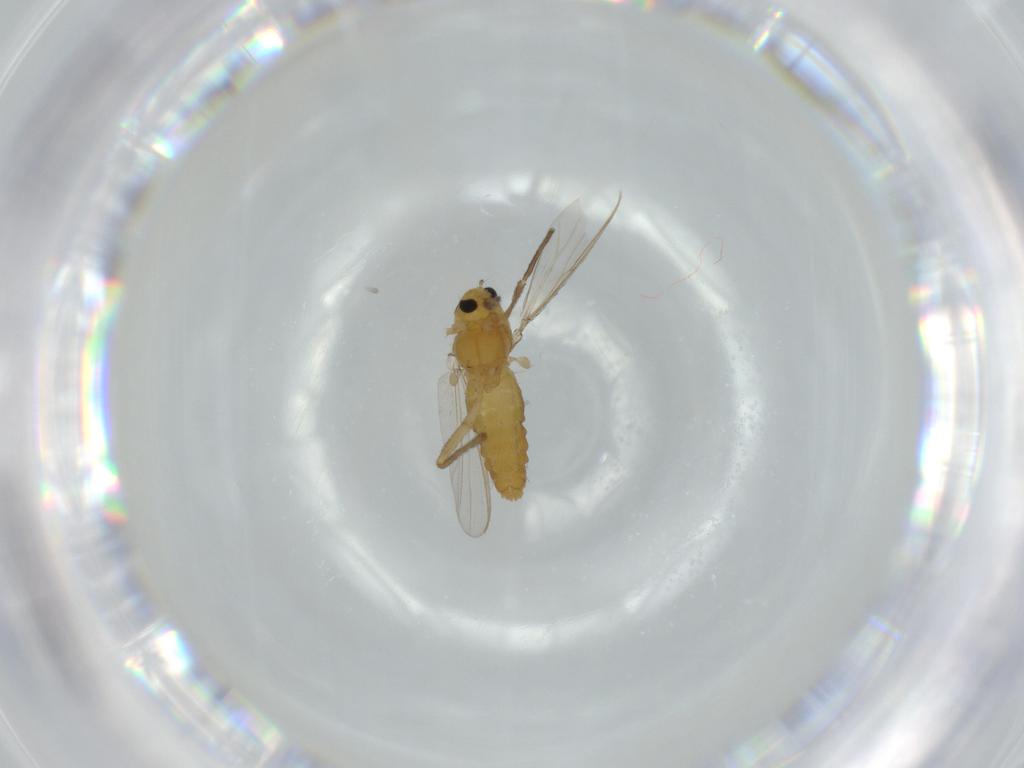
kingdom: Animalia
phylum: Arthropoda
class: Insecta
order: Diptera
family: Chironomidae
